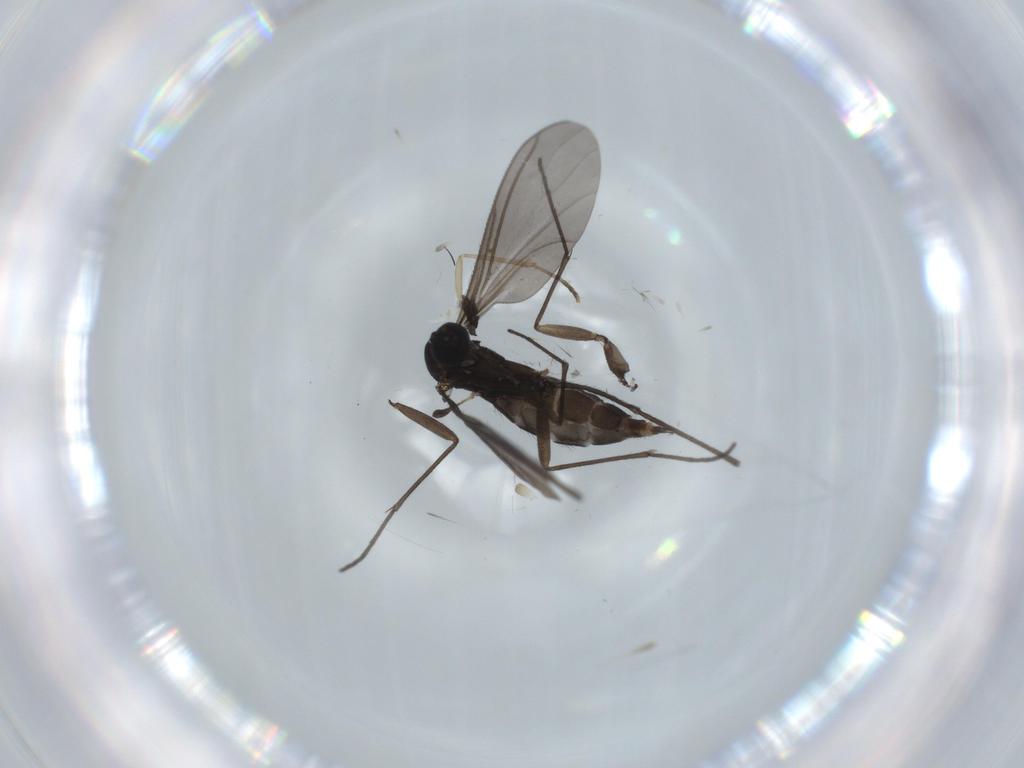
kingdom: Animalia
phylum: Arthropoda
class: Insecta
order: Diptera
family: Sciaridae
